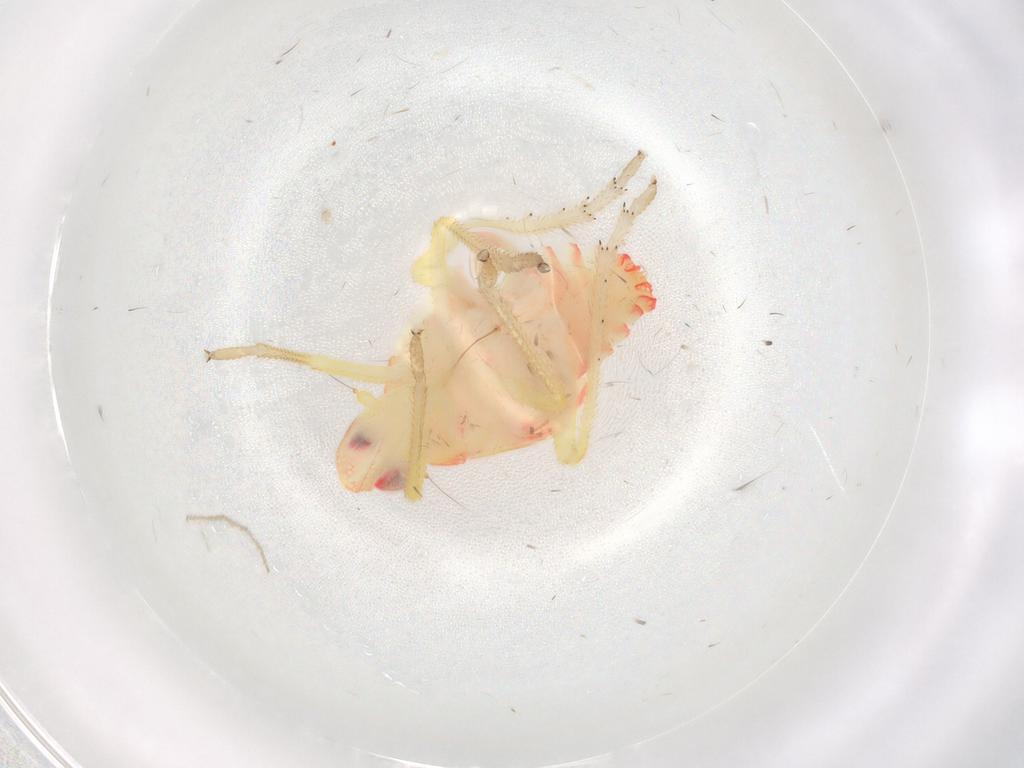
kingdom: Animalia
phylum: Arthropoda
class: Insecta
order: Hemiptera
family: Tropiduchidae
